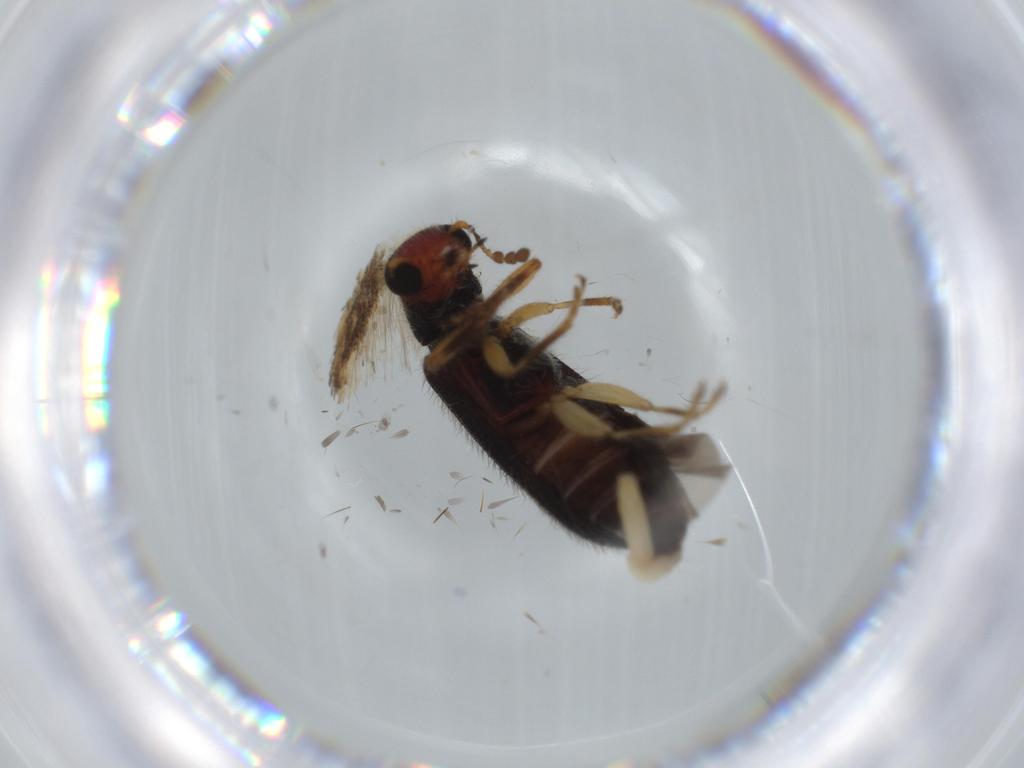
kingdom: Animalia
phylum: Arthropoda
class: Insecta
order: Coleoptera
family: Cleridae
